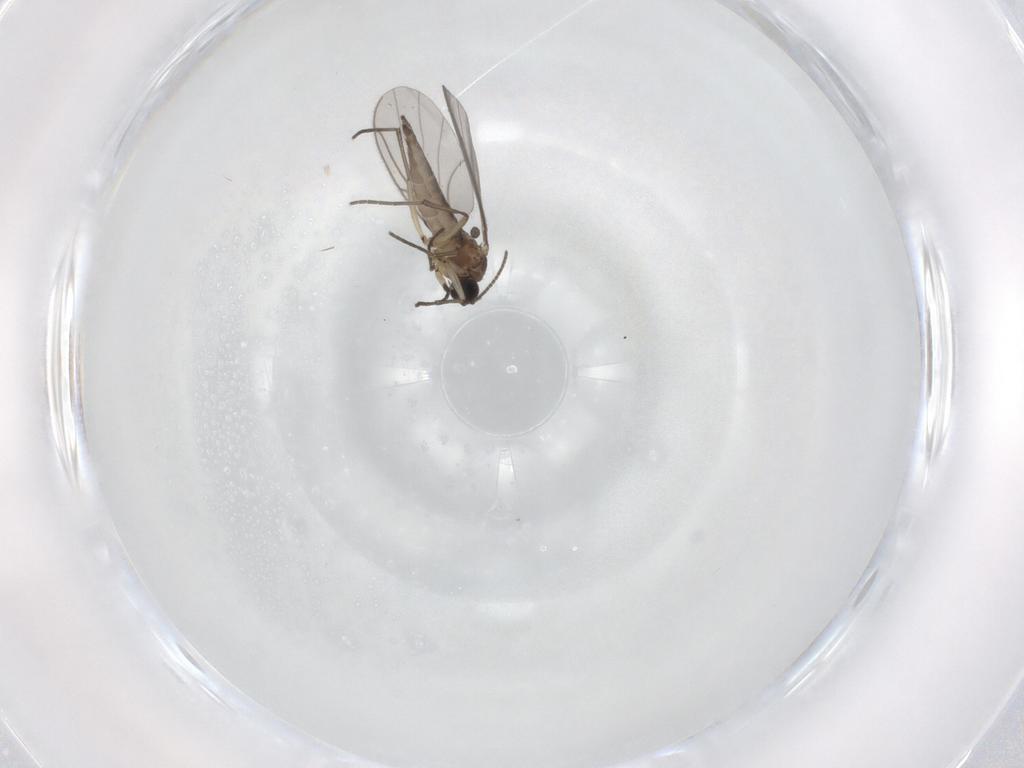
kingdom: Animalia
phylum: Arthropoda
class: Insecta
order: Diptera
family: Sciaridae
